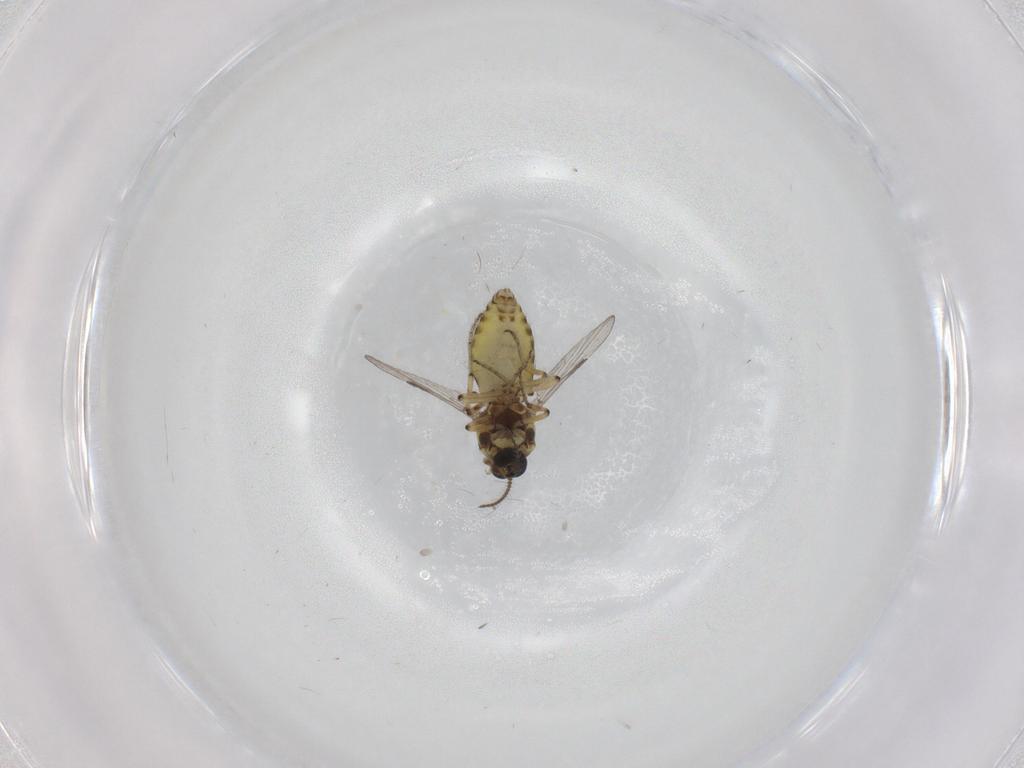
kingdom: Animalia
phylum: Arthropoda
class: Insecta
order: Diptera
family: Ceratopogonidae
